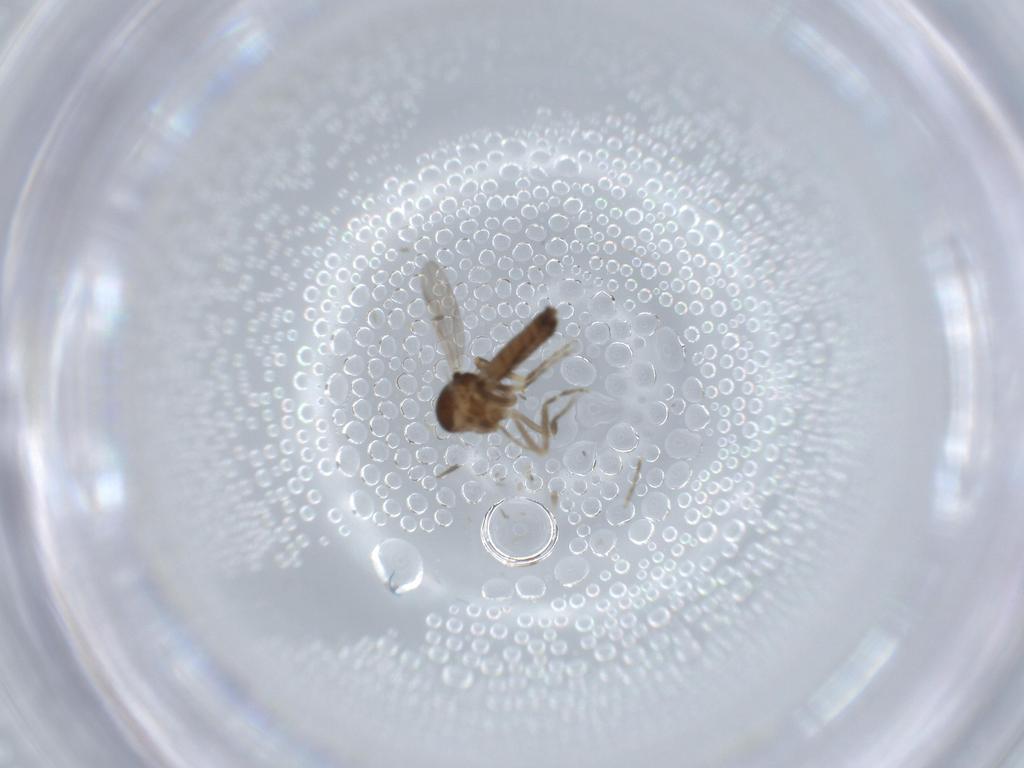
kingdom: Animalia
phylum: Arthropoda
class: Insecta
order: Diptera
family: Ceratopogonidae
